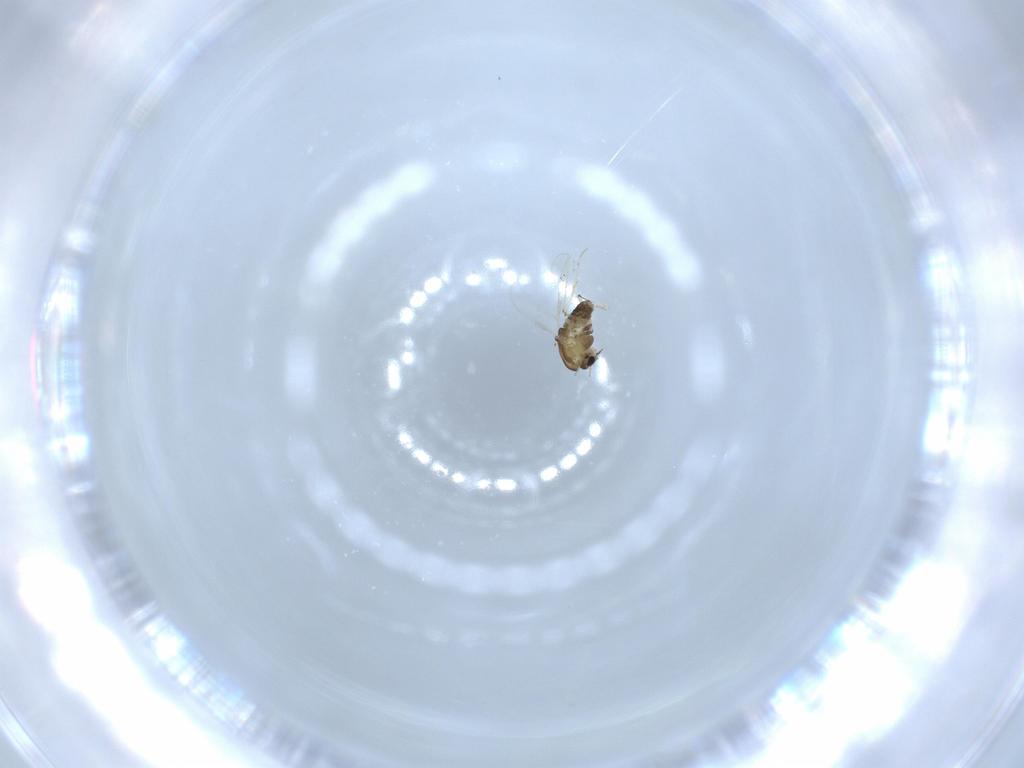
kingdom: Animalia
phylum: Arthropoda
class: Insecta
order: Diptera
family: Chironomidae
